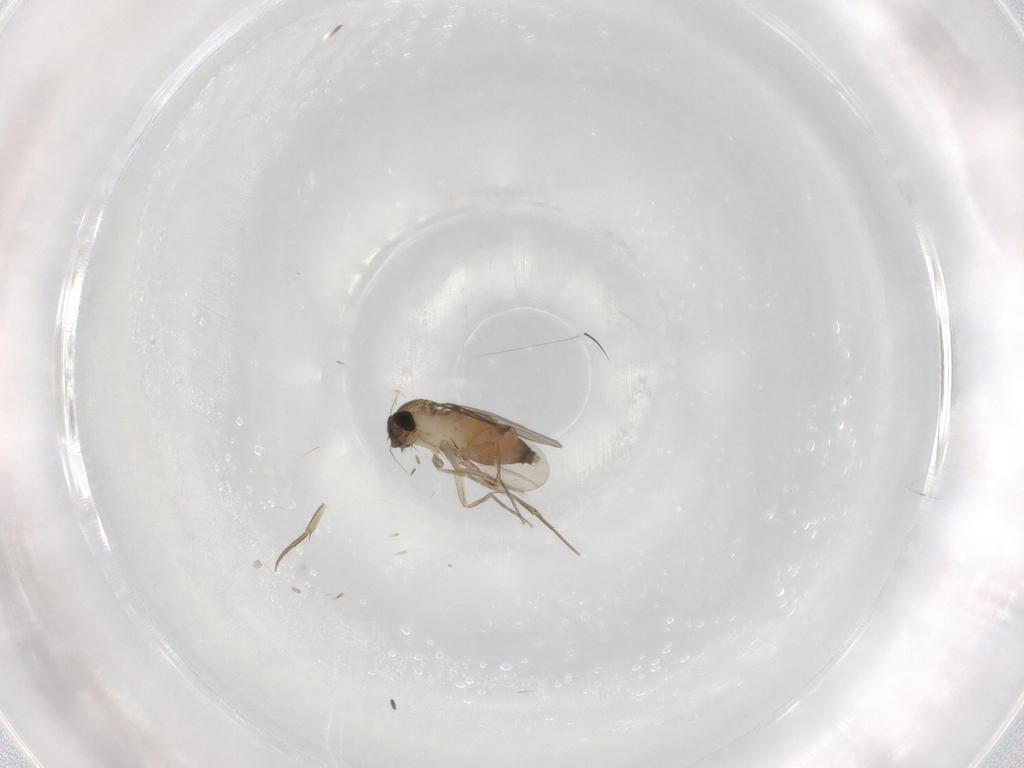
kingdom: Animalia
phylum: Arthropoda
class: Insecta
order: Diptera
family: Phoridae
